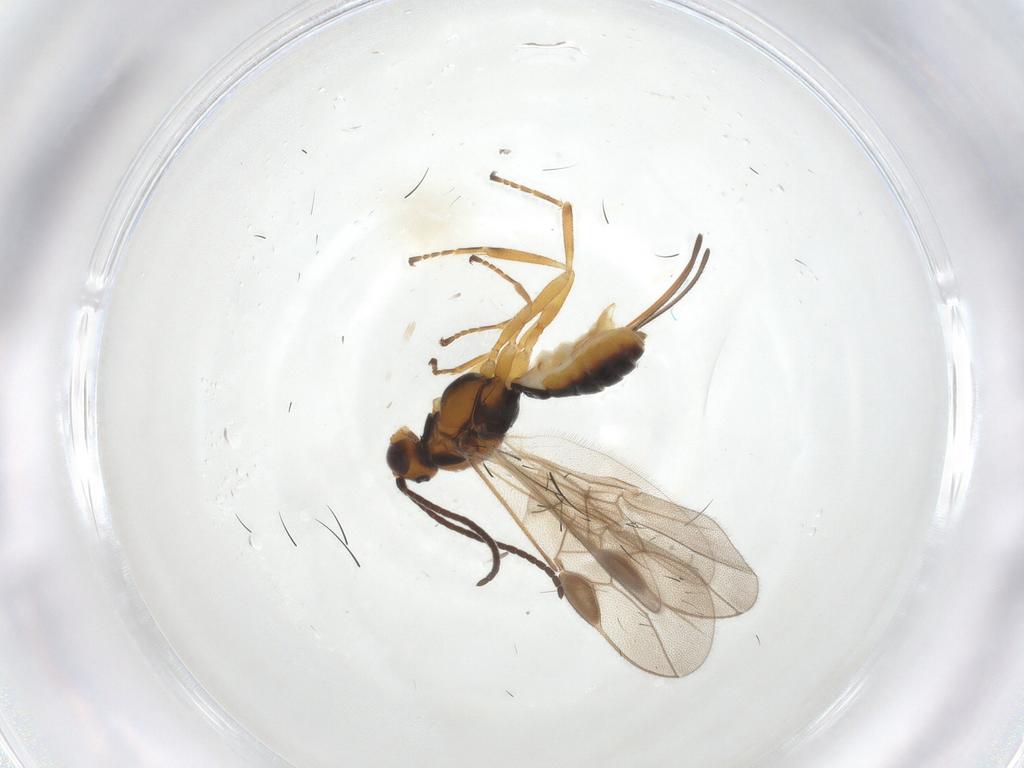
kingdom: Animalia
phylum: Arthropoda
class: Insecta
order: Hymenoptera
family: Braconidae
